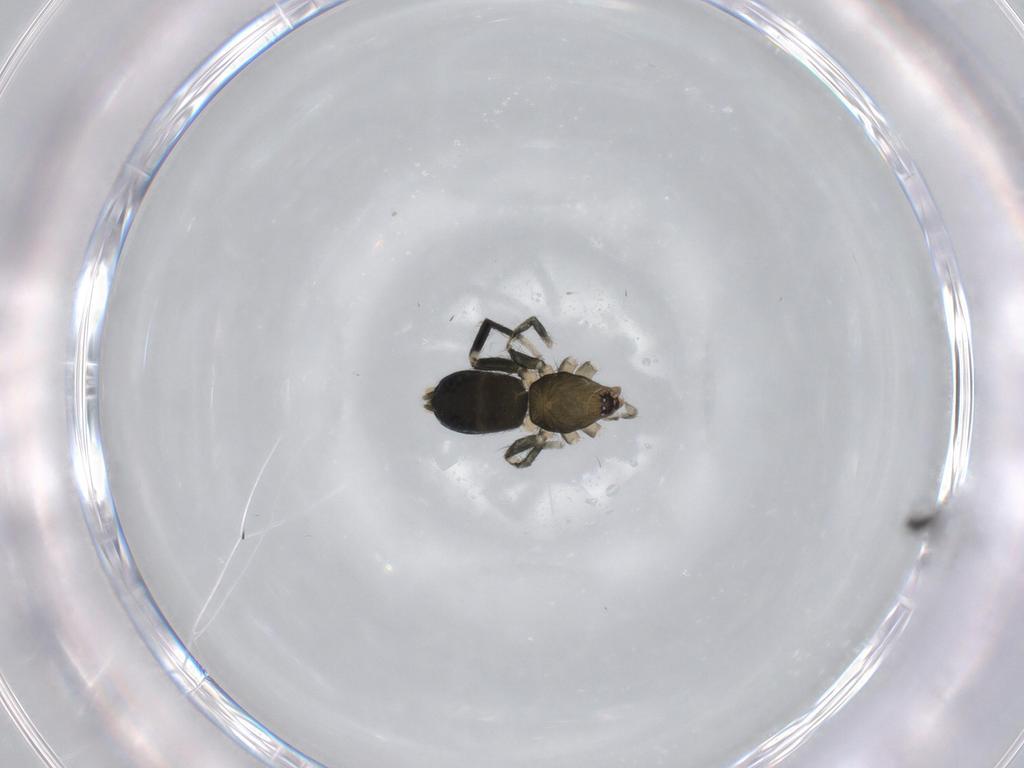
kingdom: Animalia
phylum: Arthropoda
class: Arachnida
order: Araneae
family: Gnaphosidae
